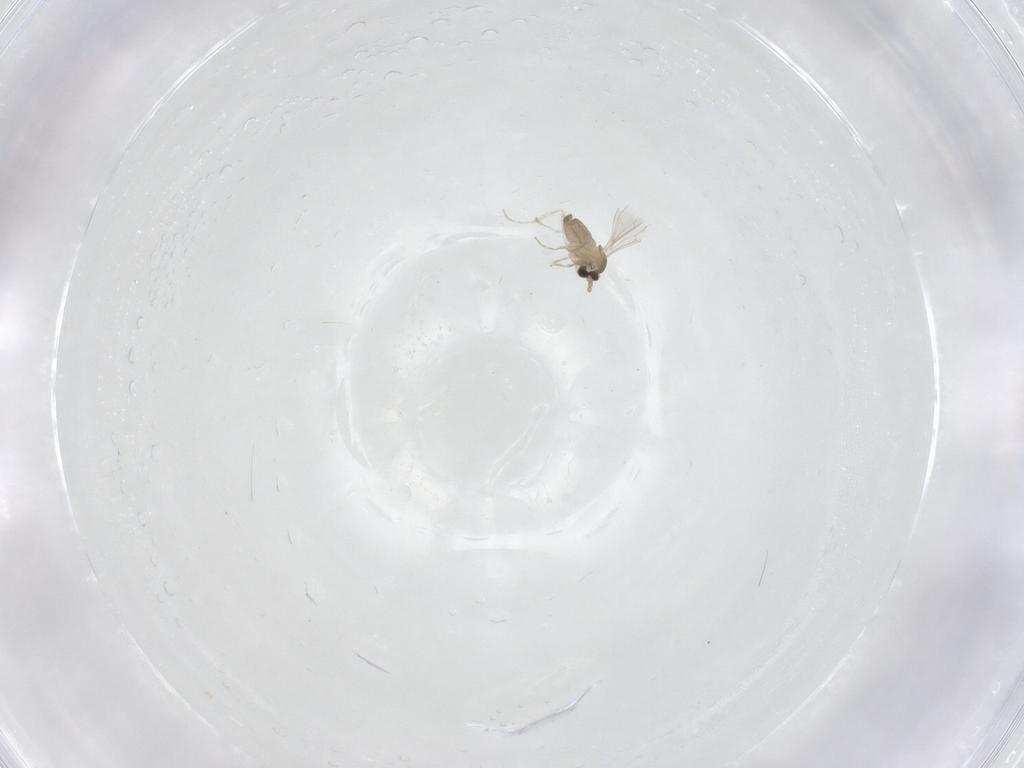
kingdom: Animalia
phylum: Arthropoda
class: Insecta
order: Diptera
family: Cecidomyiidae
